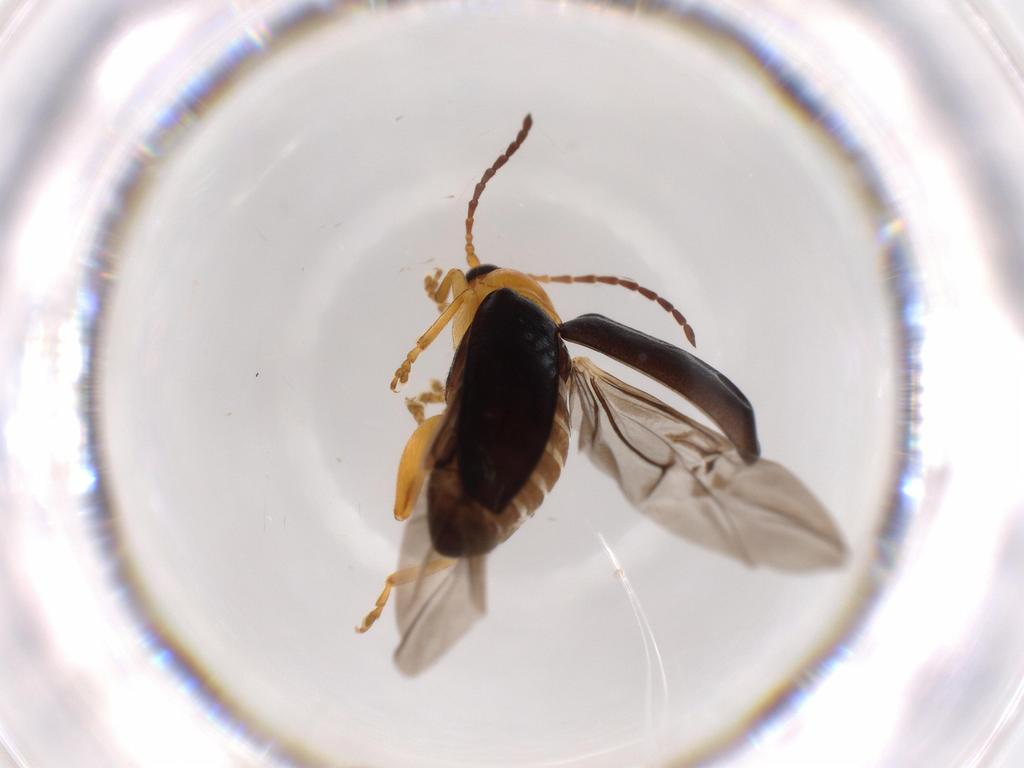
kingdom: Animalia
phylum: Arthropoda
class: Insecta
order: Coleoptera
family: Chrysomelidae
